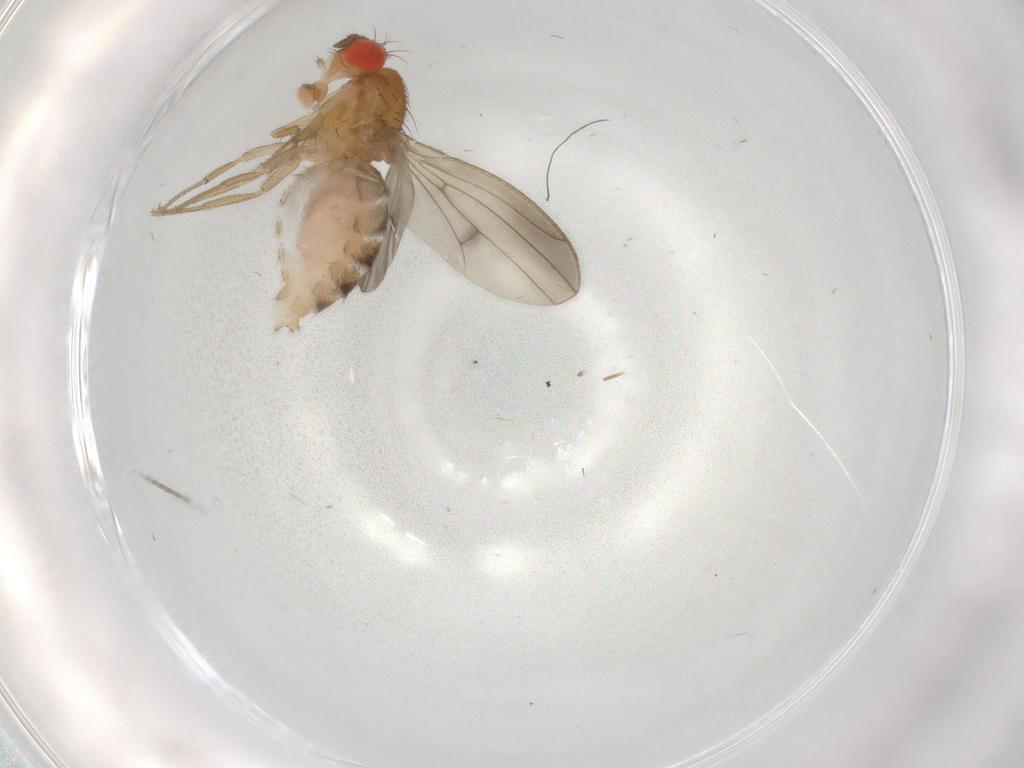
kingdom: Animalia
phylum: Arthropoda
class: Insecta
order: Diptera
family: Drosophilidae
